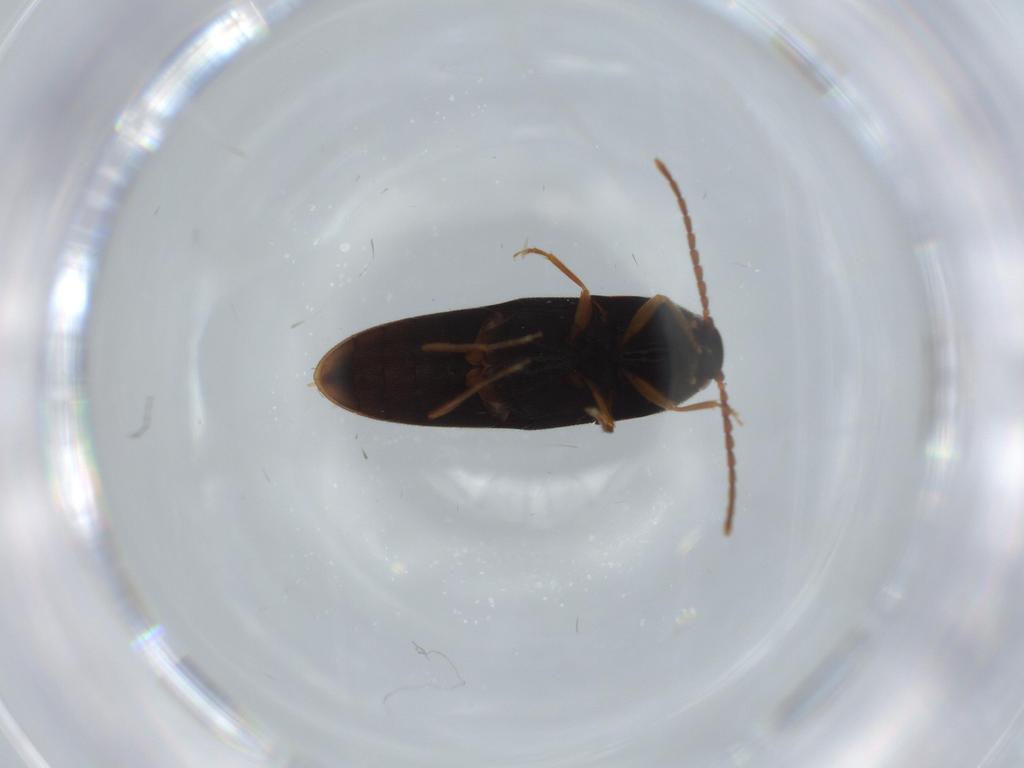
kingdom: Animalia
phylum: Arthropoda
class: Insecta
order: Coleoptera
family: Elateridae
